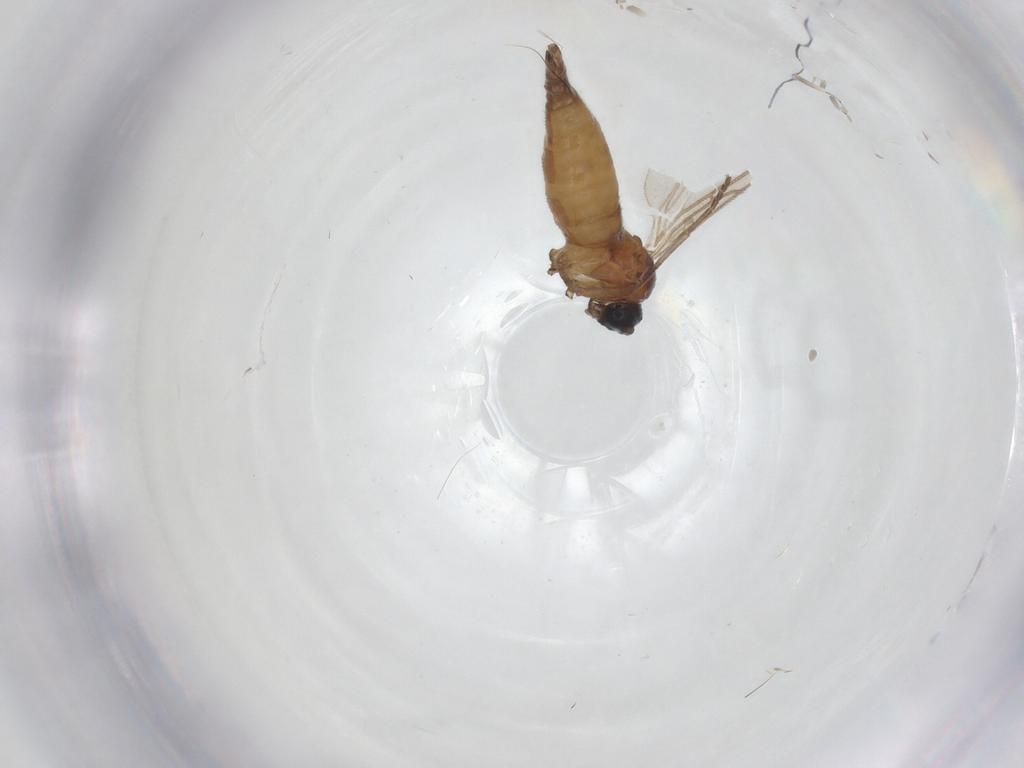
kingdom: Animalia
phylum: Arthropoda
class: Insecta
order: Diptera
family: Sciaridae
